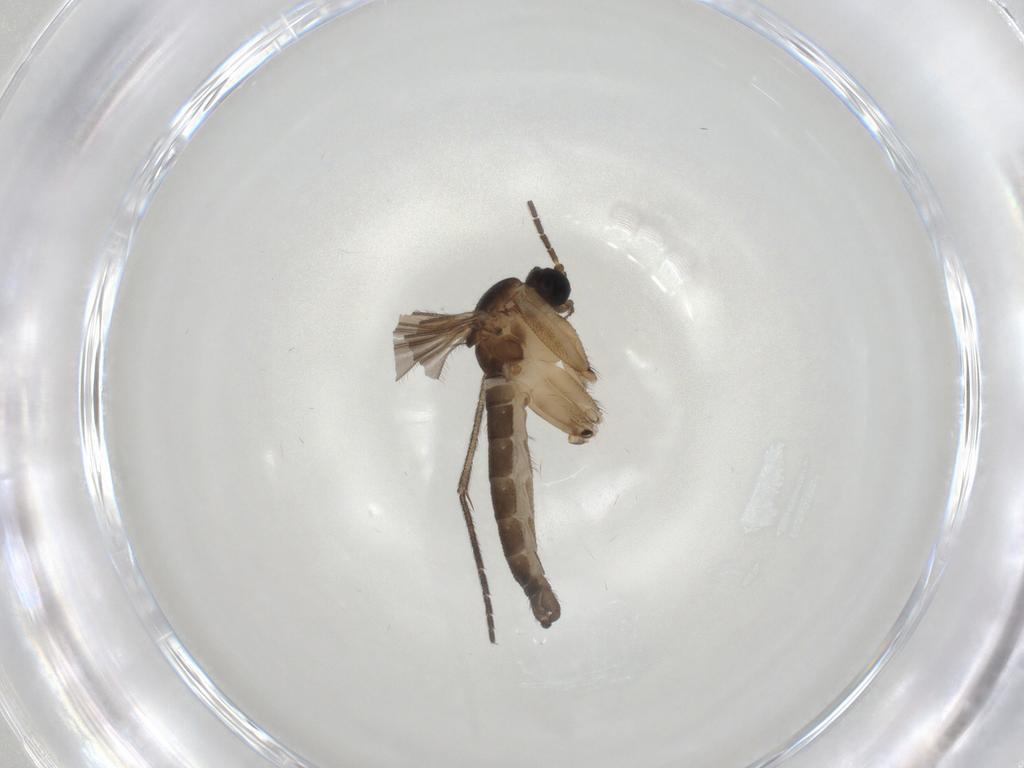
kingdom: Animalia
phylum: Arthropoda
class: Insecta
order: Diptera
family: Sciaridae
